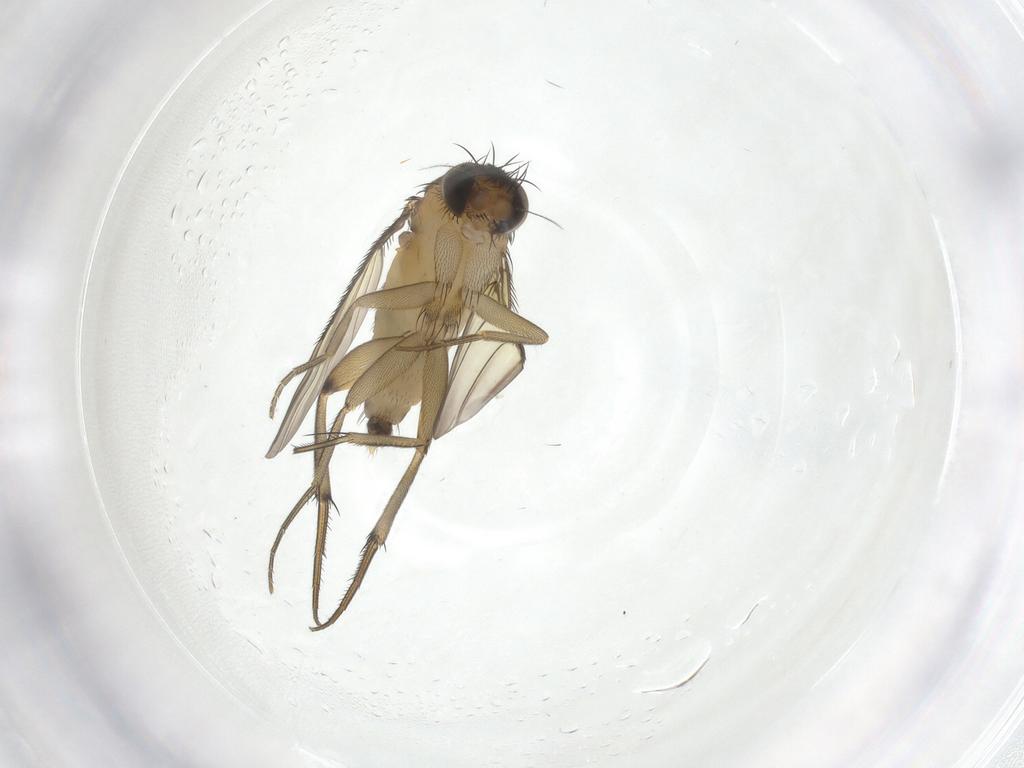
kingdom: Animalia
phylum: Arthropoda
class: Insecta
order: Diptera
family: Phoridae
